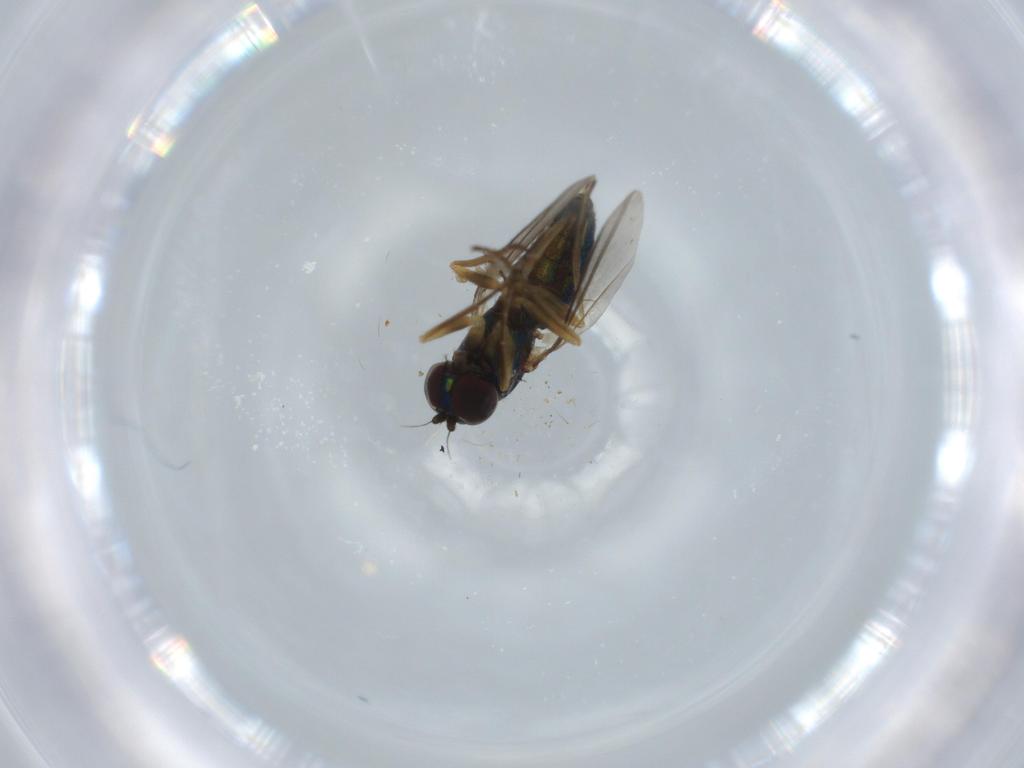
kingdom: Animalia
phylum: Arthropoda
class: Insecta
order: Diptera
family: Dolichopodidae
